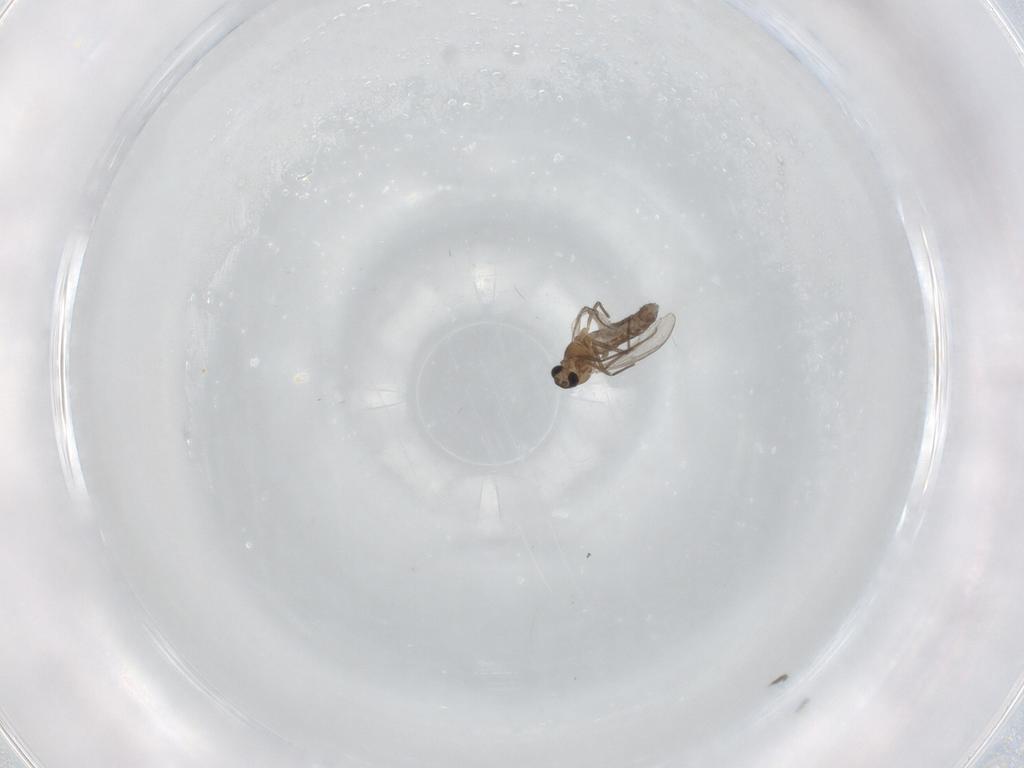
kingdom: Animalia
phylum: Arthropoda
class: Insecta
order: Diptera
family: Chironomidae
